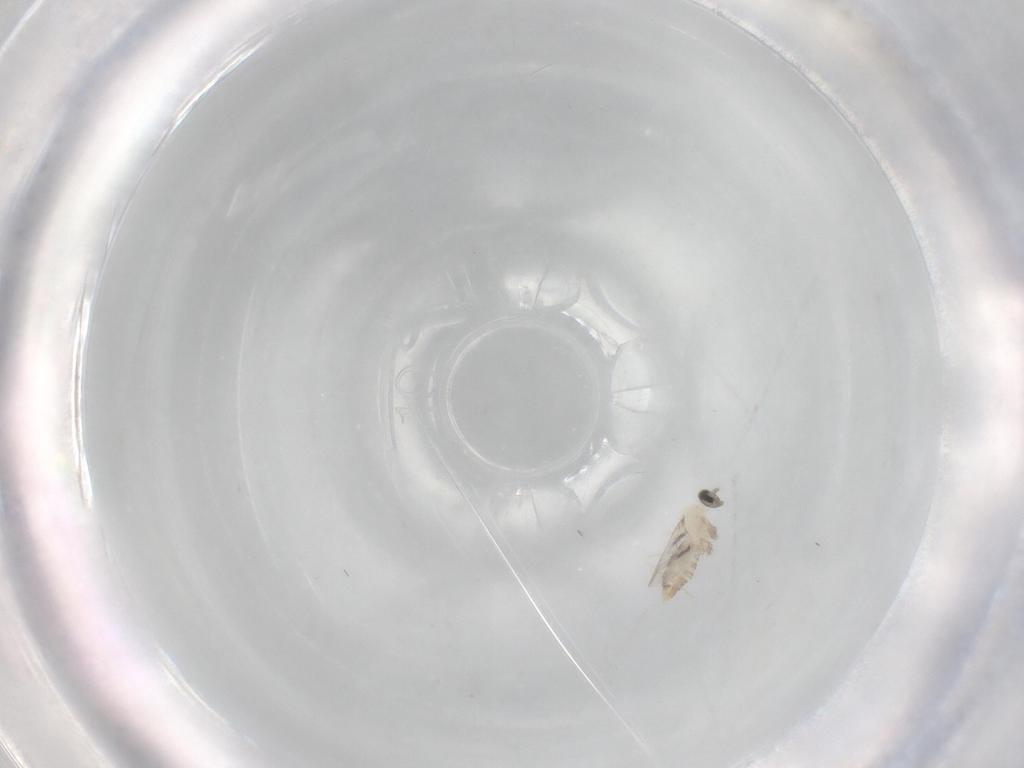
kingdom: Animalia
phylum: Arthropoda
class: Insecta
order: Diptera
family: Cecidomyiidae
